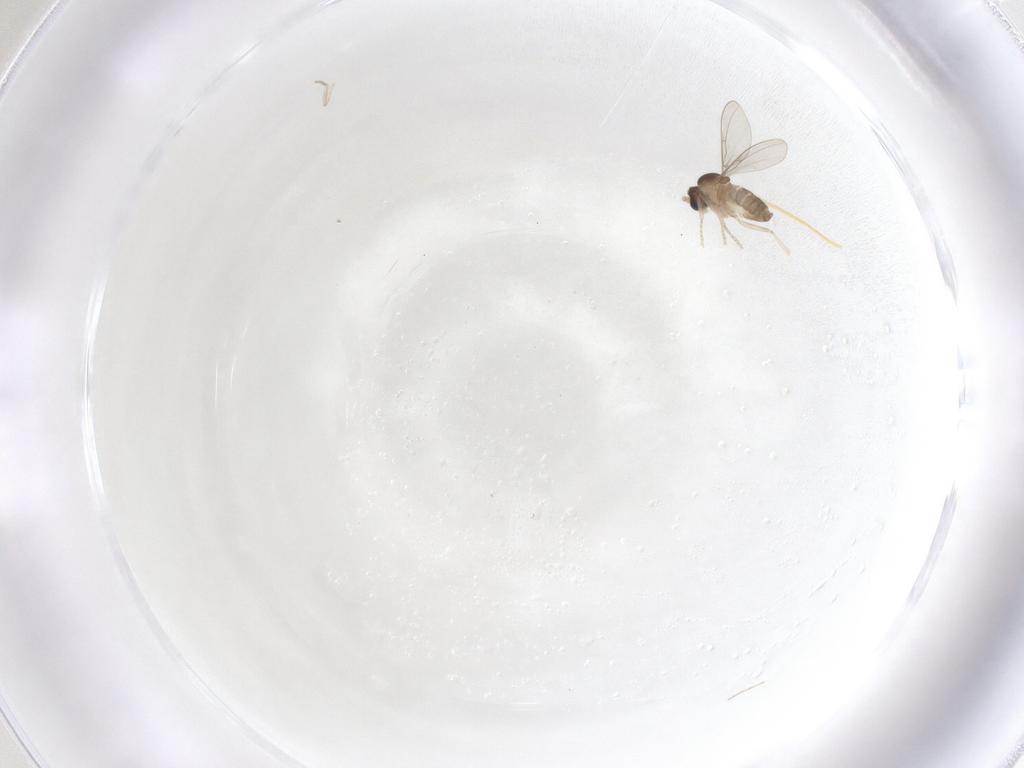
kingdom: Animalia
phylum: Arthropoda
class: Insecta
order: Diptera
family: Cecidomyiidae
